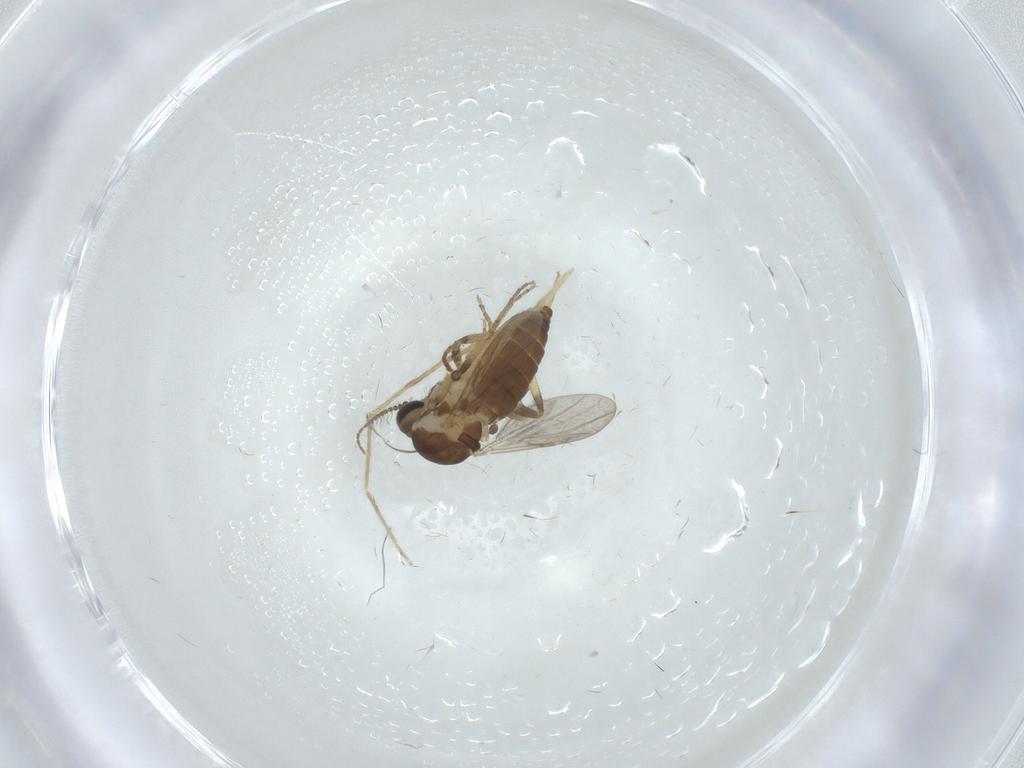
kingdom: Animalia
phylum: Arthropoda
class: Insecta
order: Diptera
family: Ceratopogonidae
